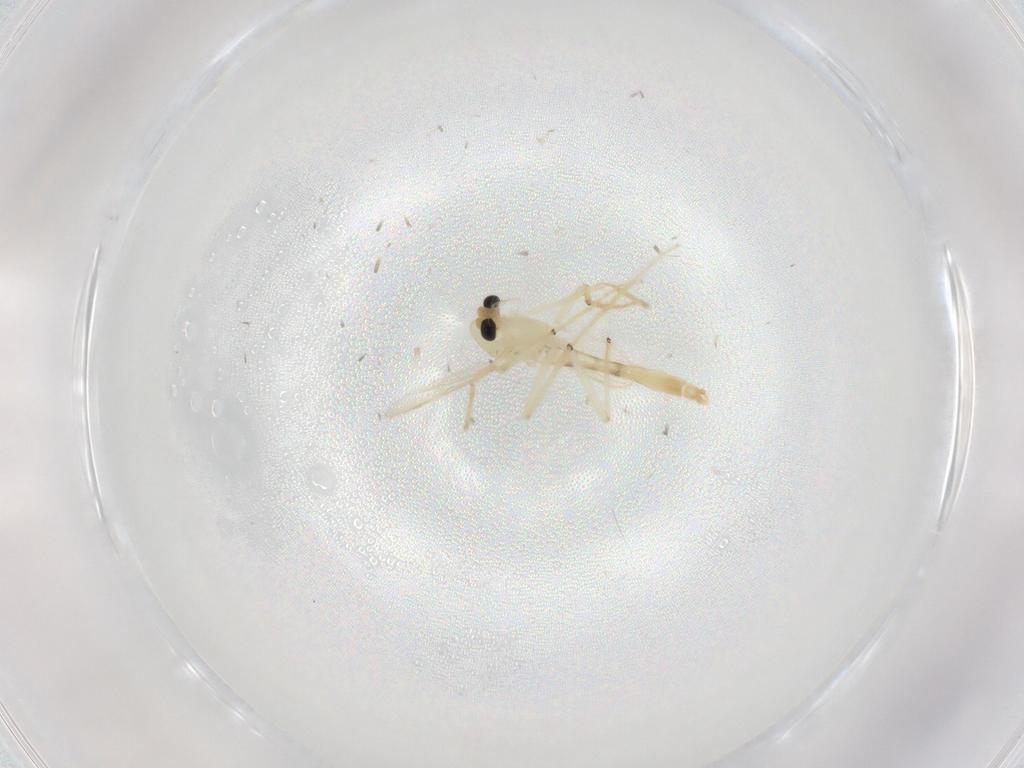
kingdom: Animalia
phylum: Arthropoda
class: Insecta
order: Diptera
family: Chironomidae
